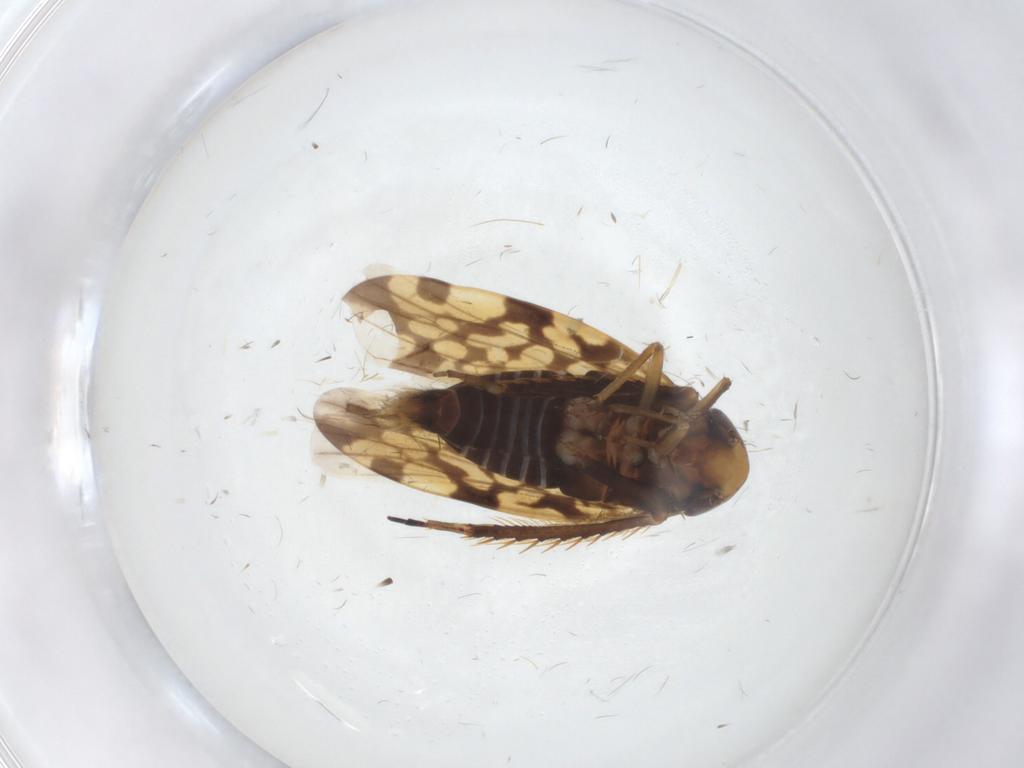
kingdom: Animalia
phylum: Arthropoda
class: Insecta
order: Hemiptera
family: Cicadellidae
